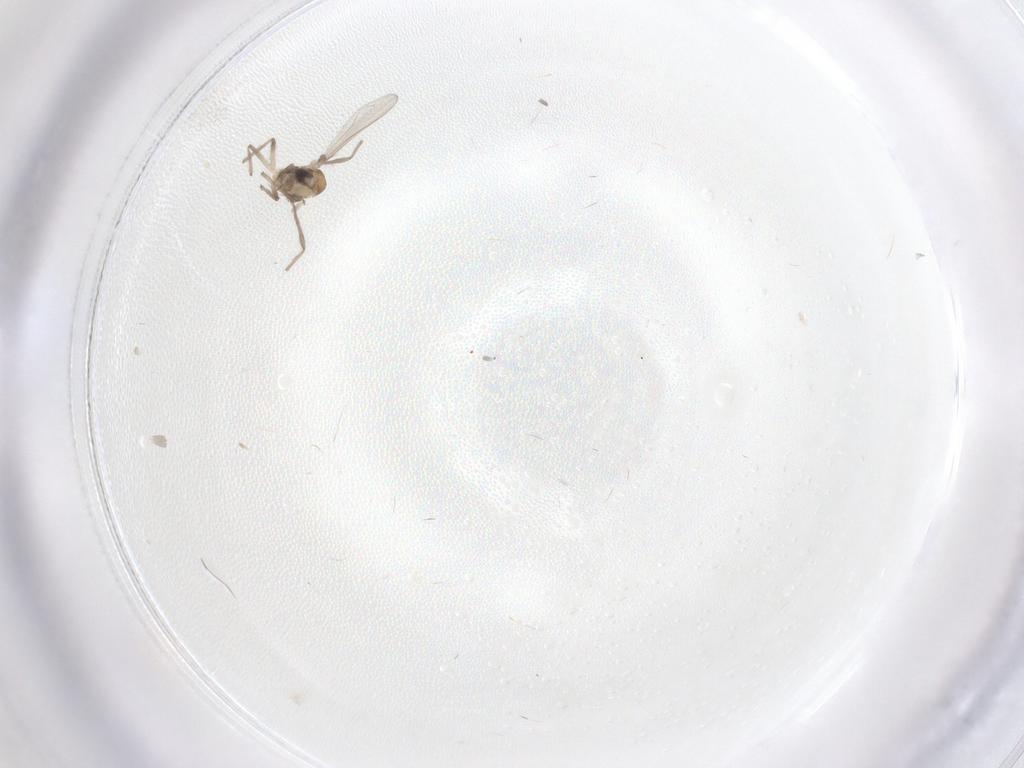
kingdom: Animalia
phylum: Arthropoda
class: Insecta
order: Diptera
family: Chironomidae
